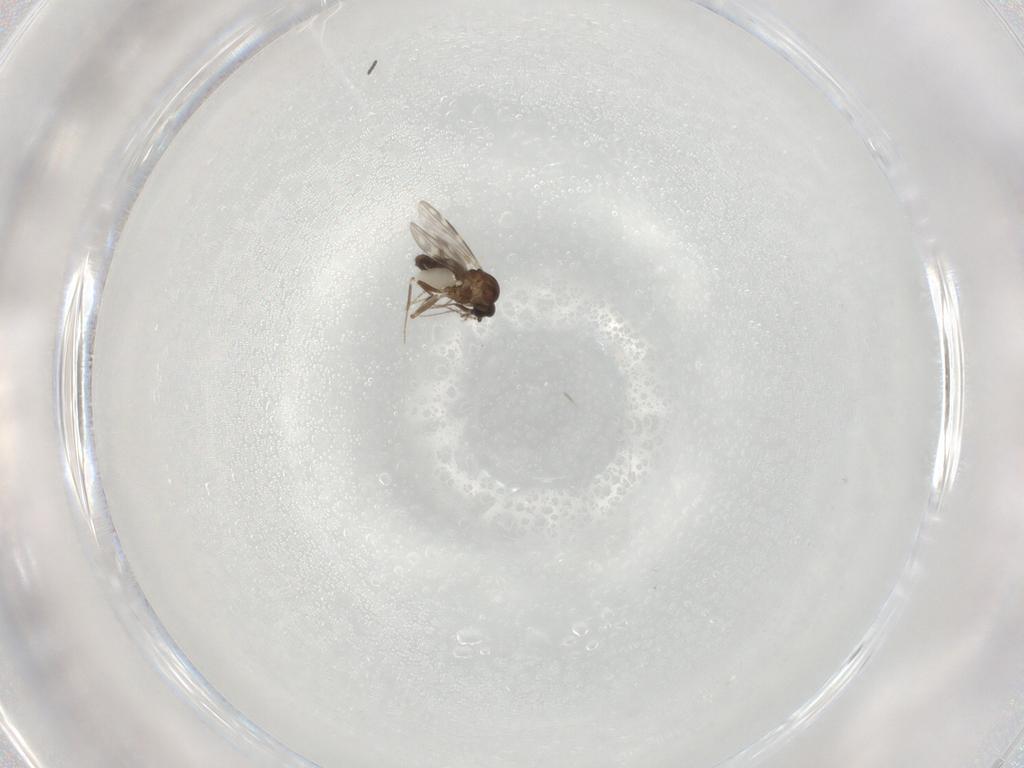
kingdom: Animalia
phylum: Arthropoda
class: Insecta
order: Diptera
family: Ceratopogonidae
